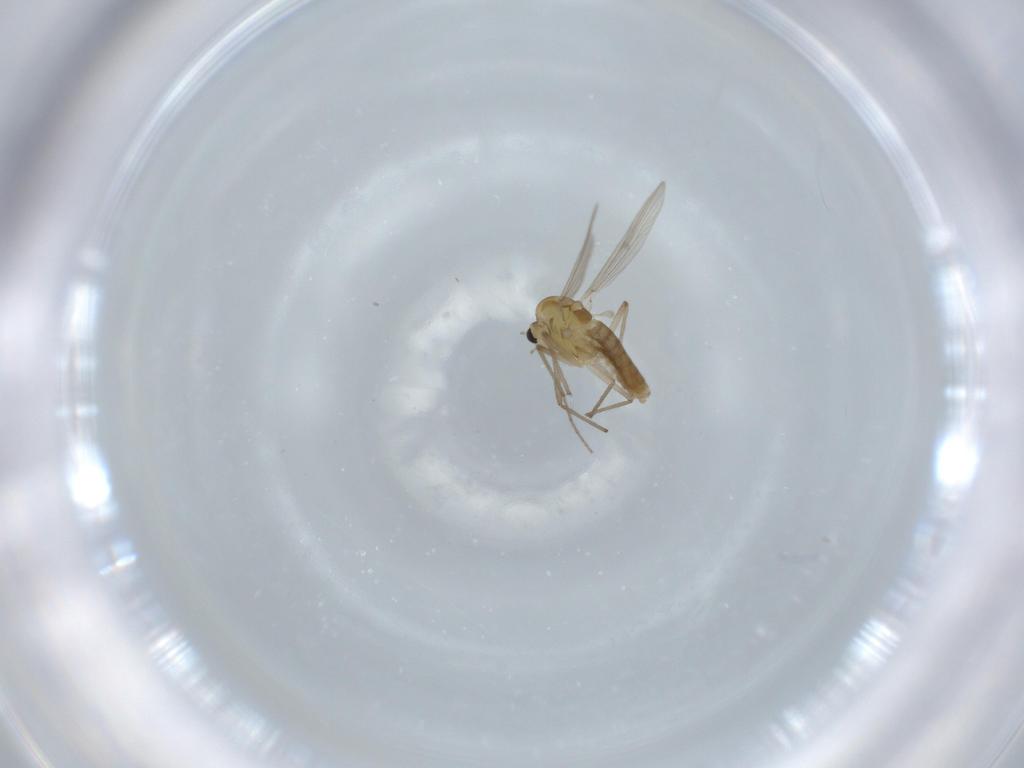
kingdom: Animalia
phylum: Arthropoda
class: Insecta
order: Diptera
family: Chironomidae
